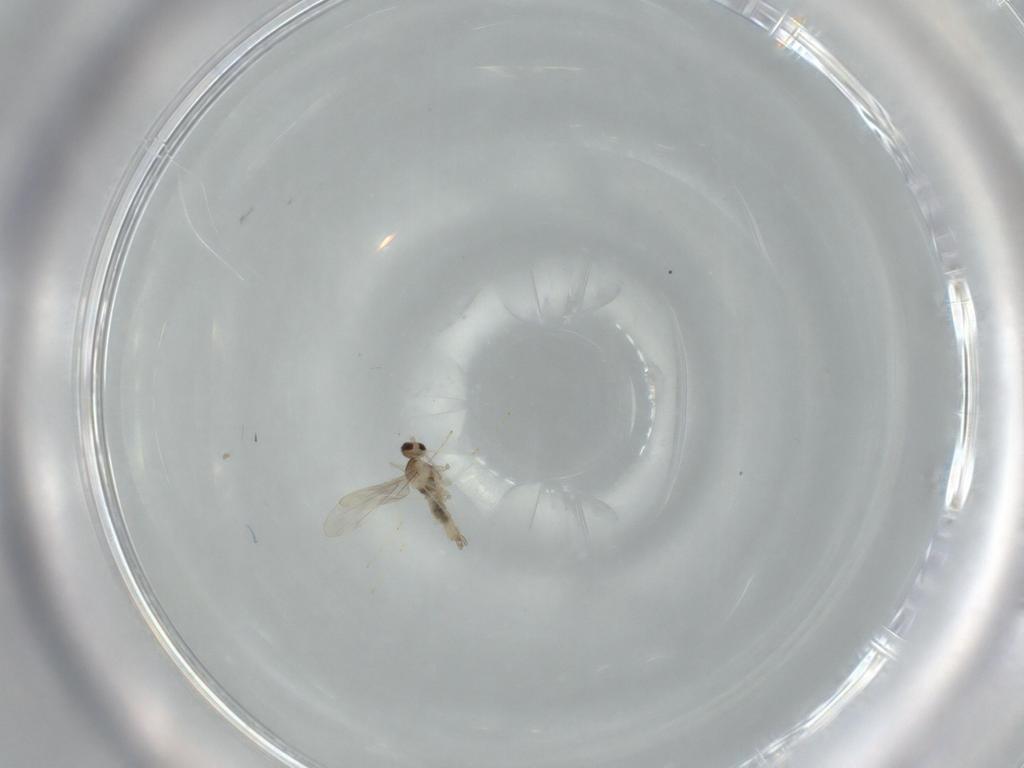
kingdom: Animalia
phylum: Arthropoda
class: Insecta
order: Diptera
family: Cecidomyiidae
